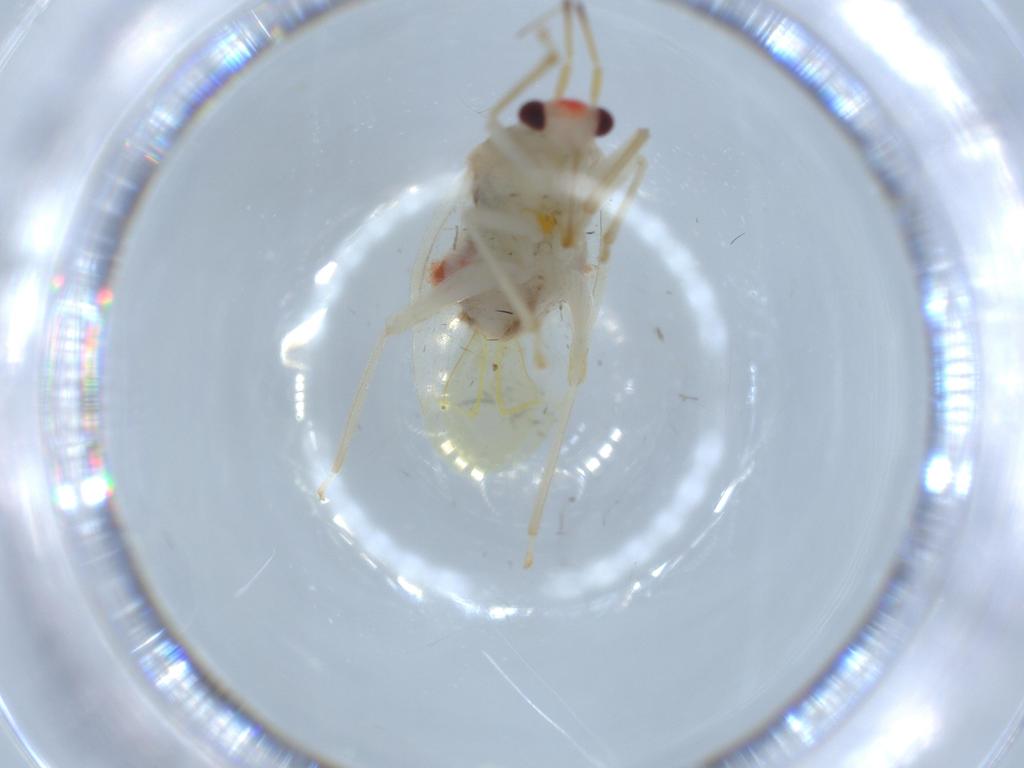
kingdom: Animalia
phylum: Arthropoda
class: Insecta
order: Hemiptera
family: Miridae
